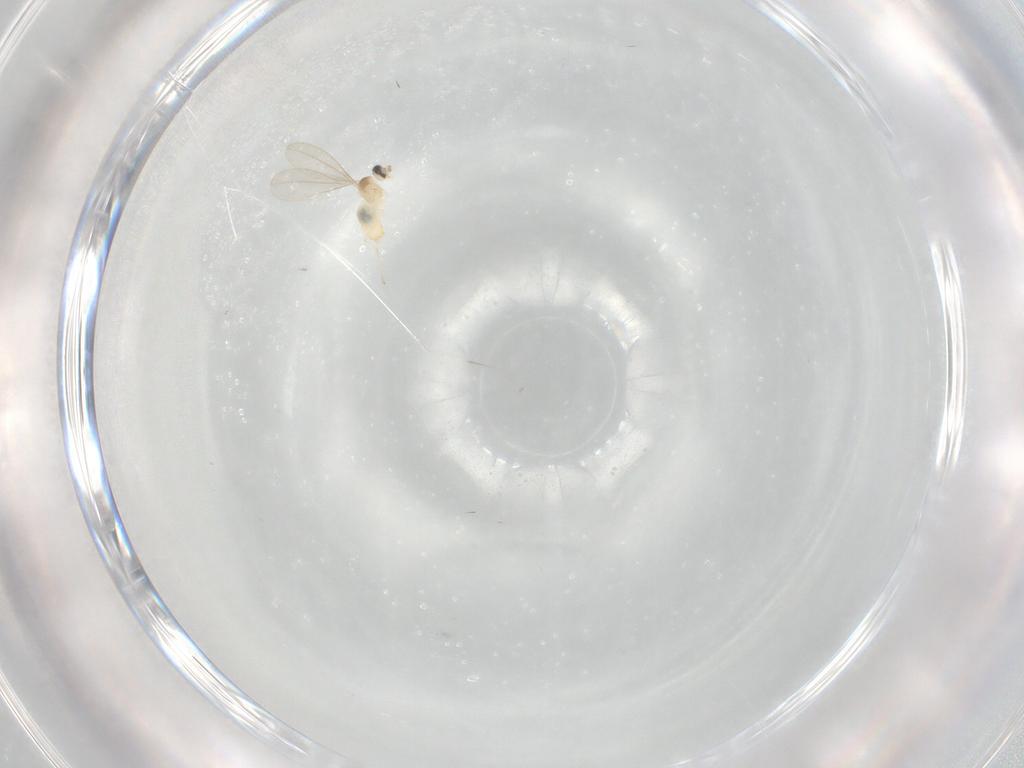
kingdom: Animalia
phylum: Arthropoda
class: Insecta
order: Diptera
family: Cecidomyiidae
